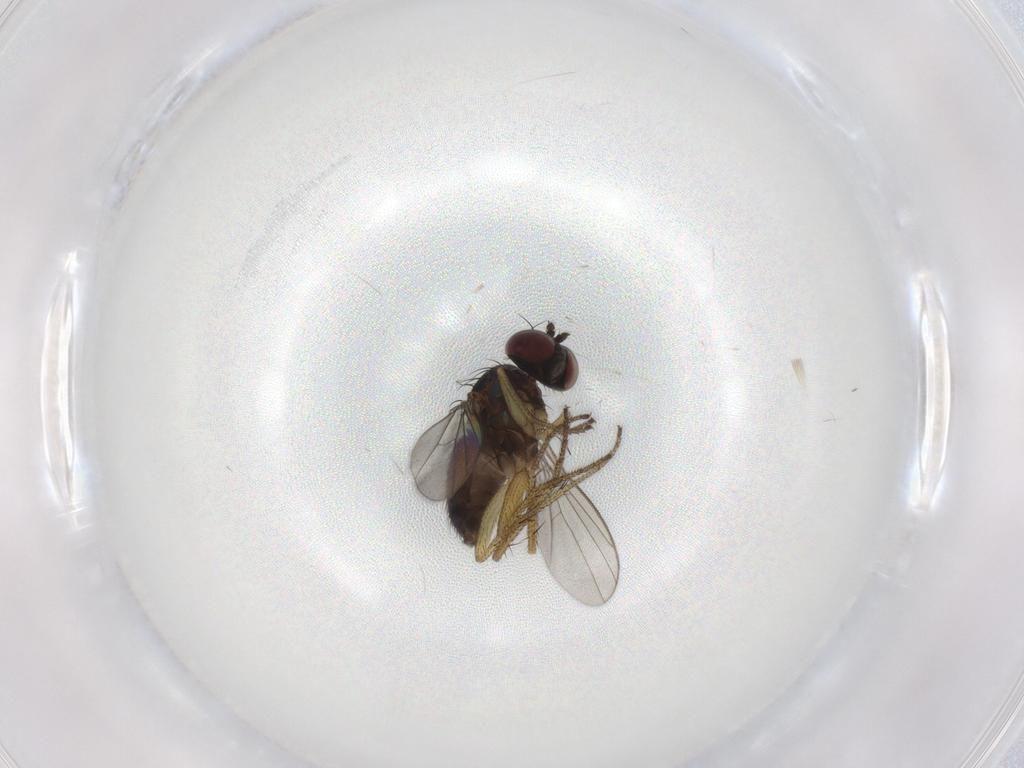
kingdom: Animalia
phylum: Arthropoda
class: Insecta
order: Diptera
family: Dolichopodidae
